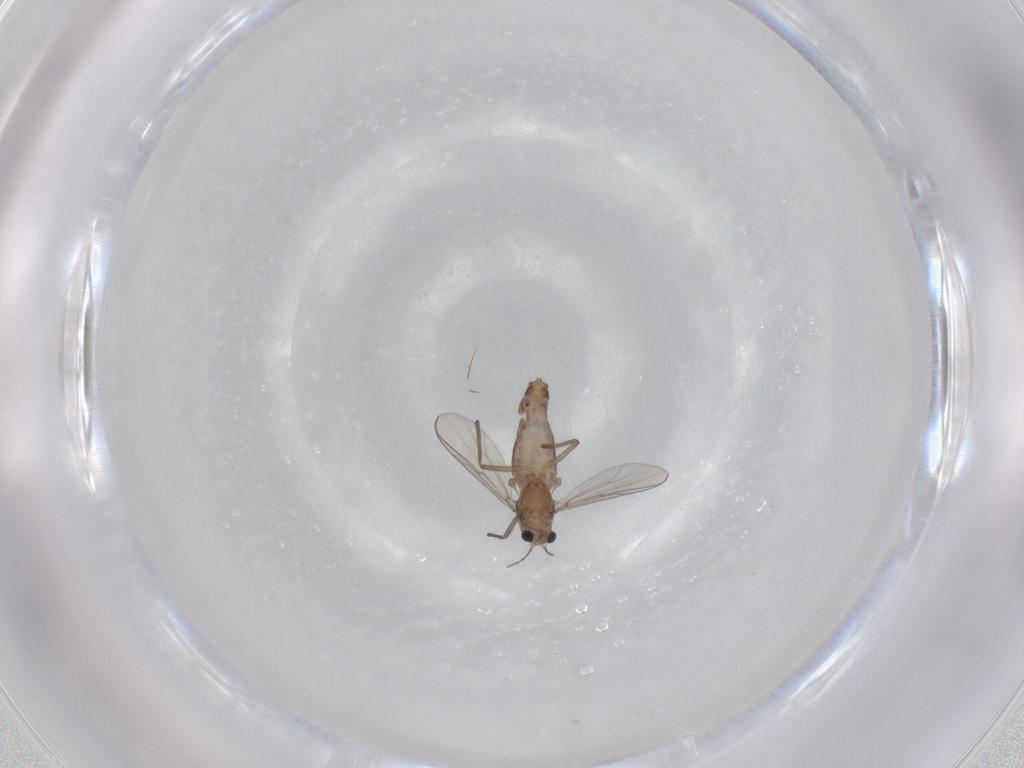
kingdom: Animalia
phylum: Arthropoda
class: Insecta
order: Diptera
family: Chironomidae
